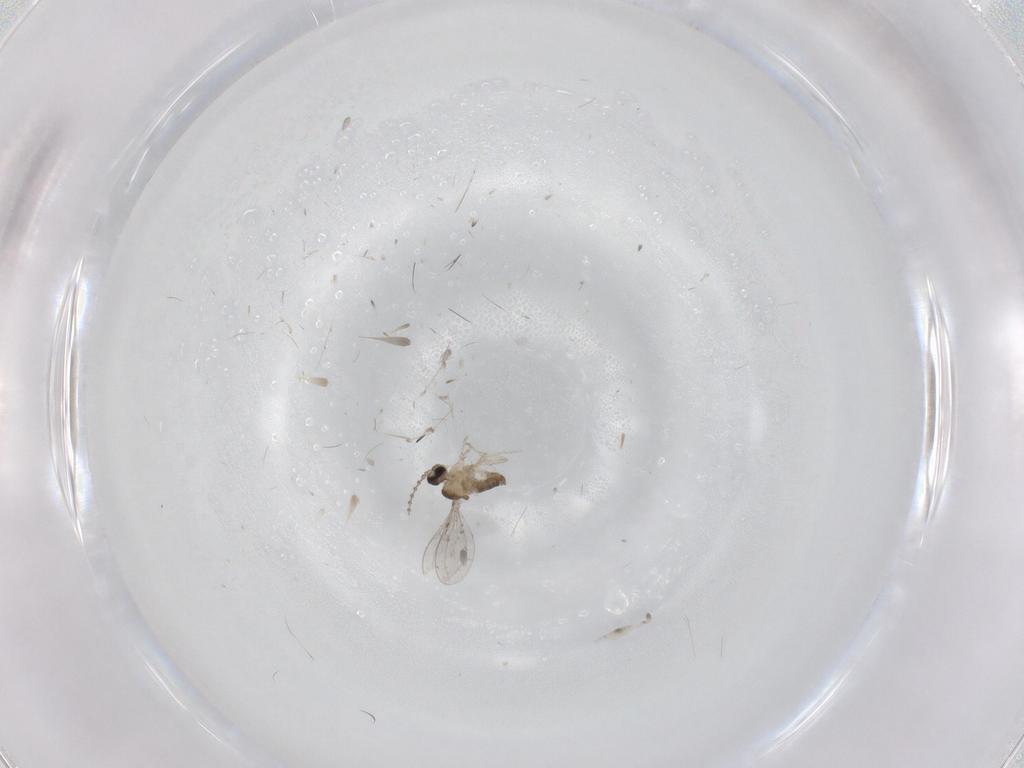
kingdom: Animalia
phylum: Arthropoda
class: Insecta
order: Diptera
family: Cecidomyiidae
